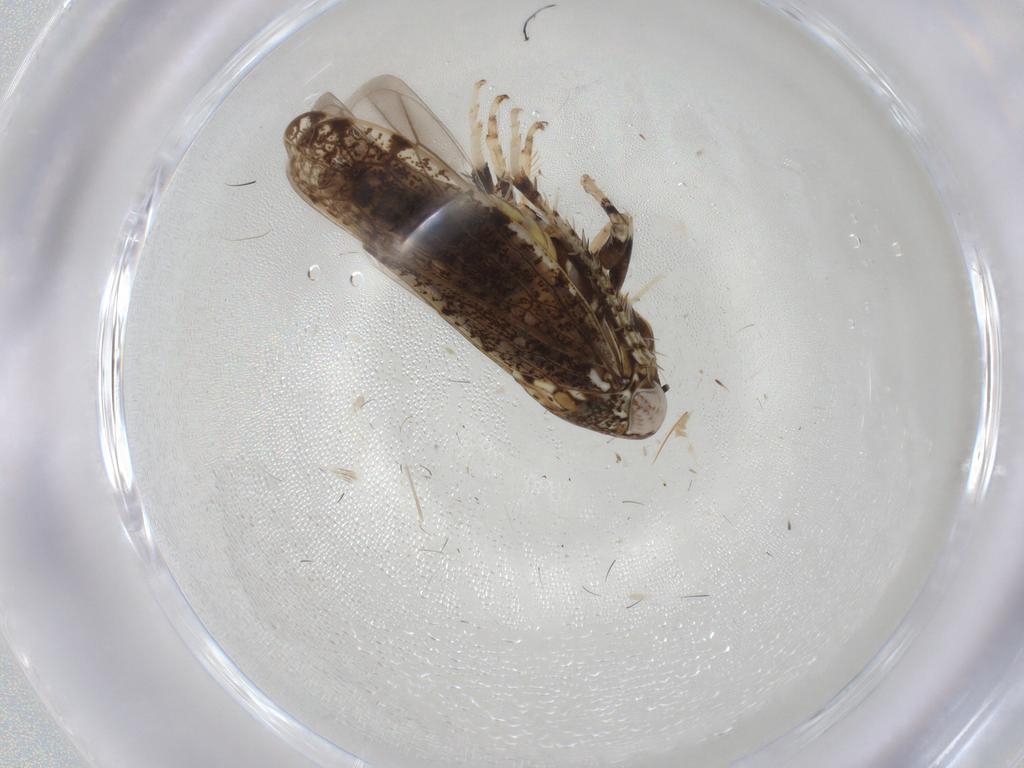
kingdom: Animalia
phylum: Arthropoda
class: Insecta
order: Hemiptera
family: Cicadellidae
